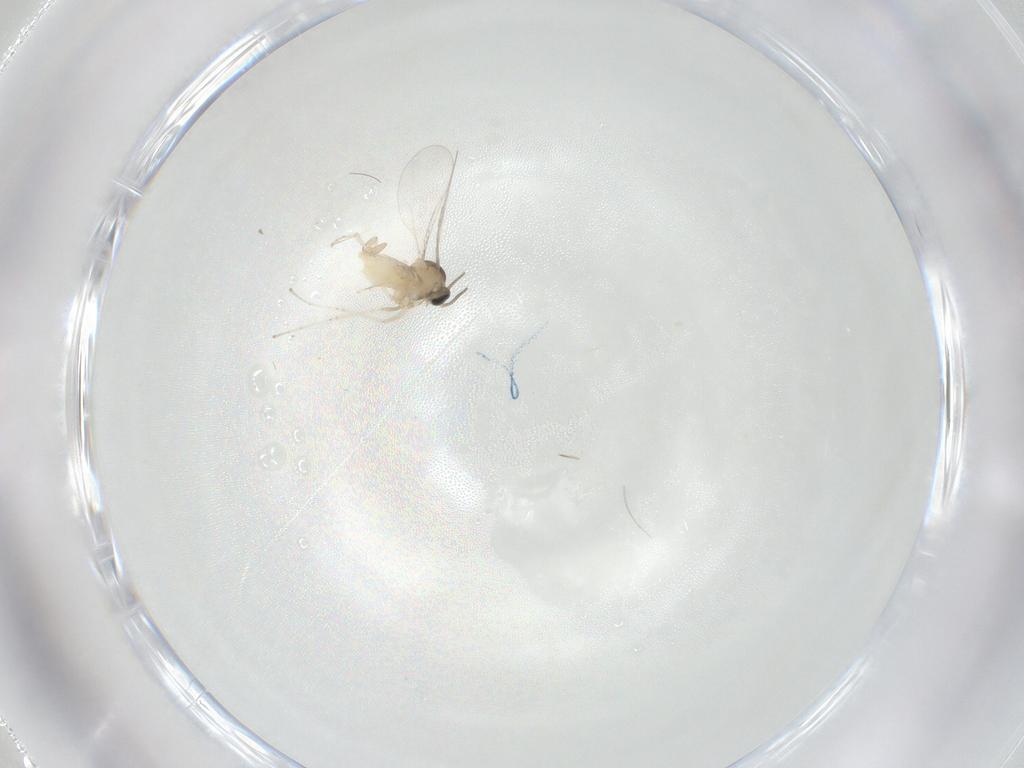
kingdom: Animalia
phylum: Arthropoda
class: Insecta
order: Diptera
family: Cecidomyiidae
